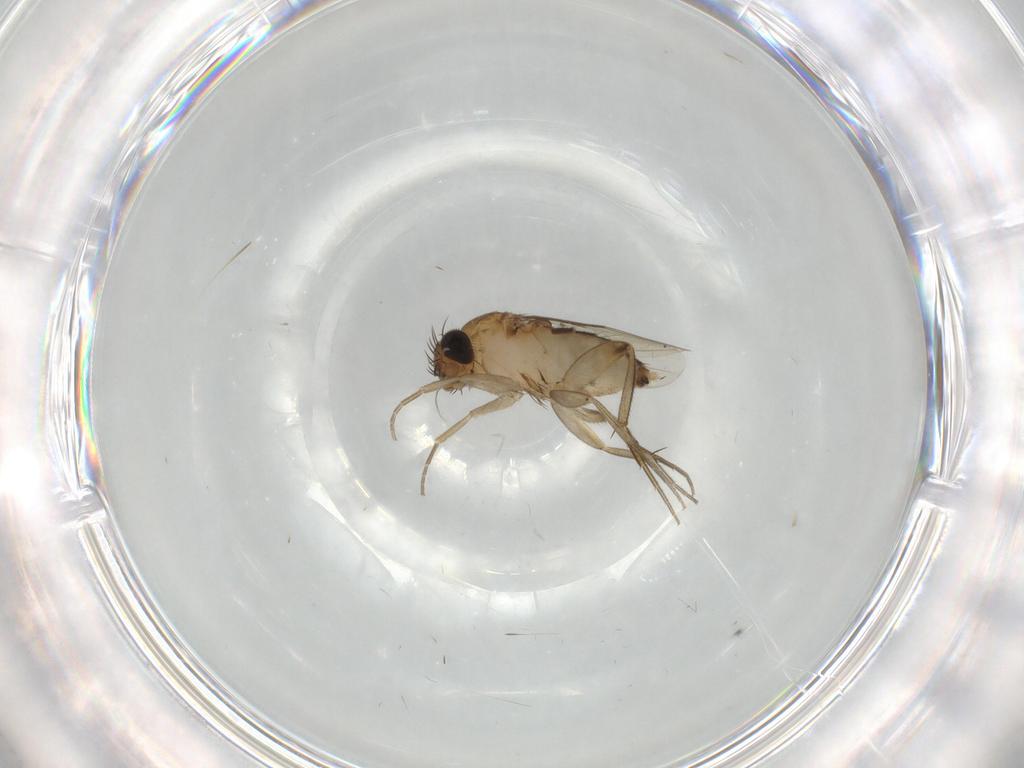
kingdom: Animalia
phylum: Arthropoda
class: Insecta
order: Diptera
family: Phoridae
